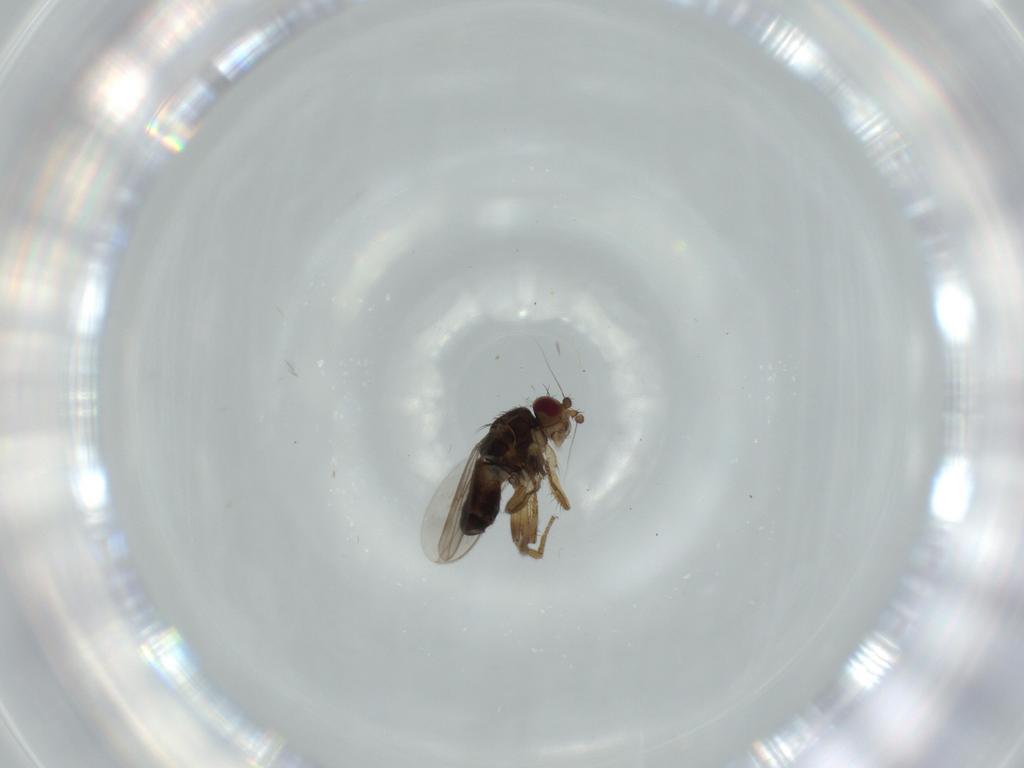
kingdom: Animalia
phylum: Arthropoda
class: Insecta
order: Diptera
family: Sphaeroceridae
